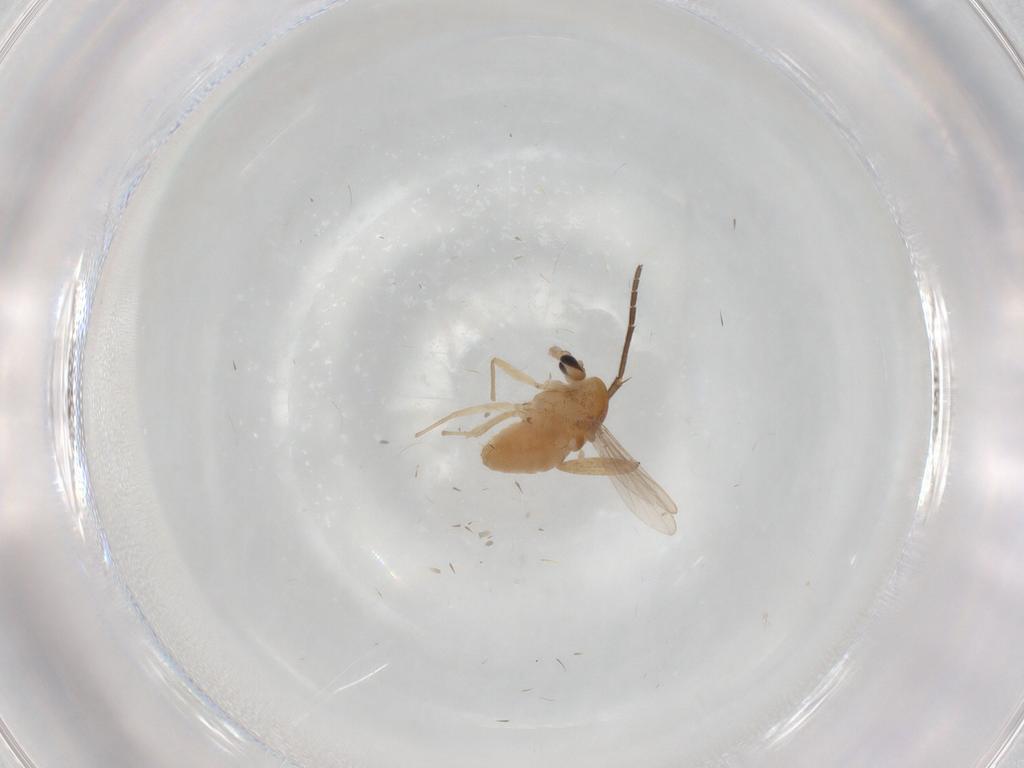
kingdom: Animalia
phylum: Arthropoda
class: Insecta
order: Diptera
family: Chironomidae
